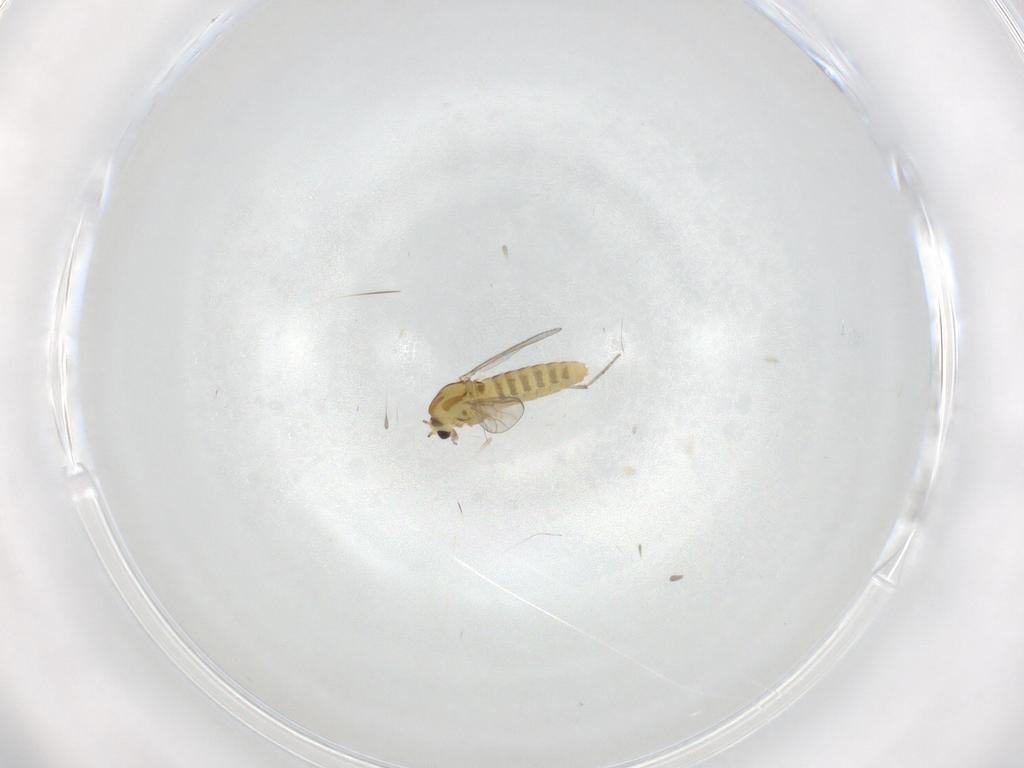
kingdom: Animalia
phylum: Arthropoda
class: Insecta
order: Diptera
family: Chironomidae
